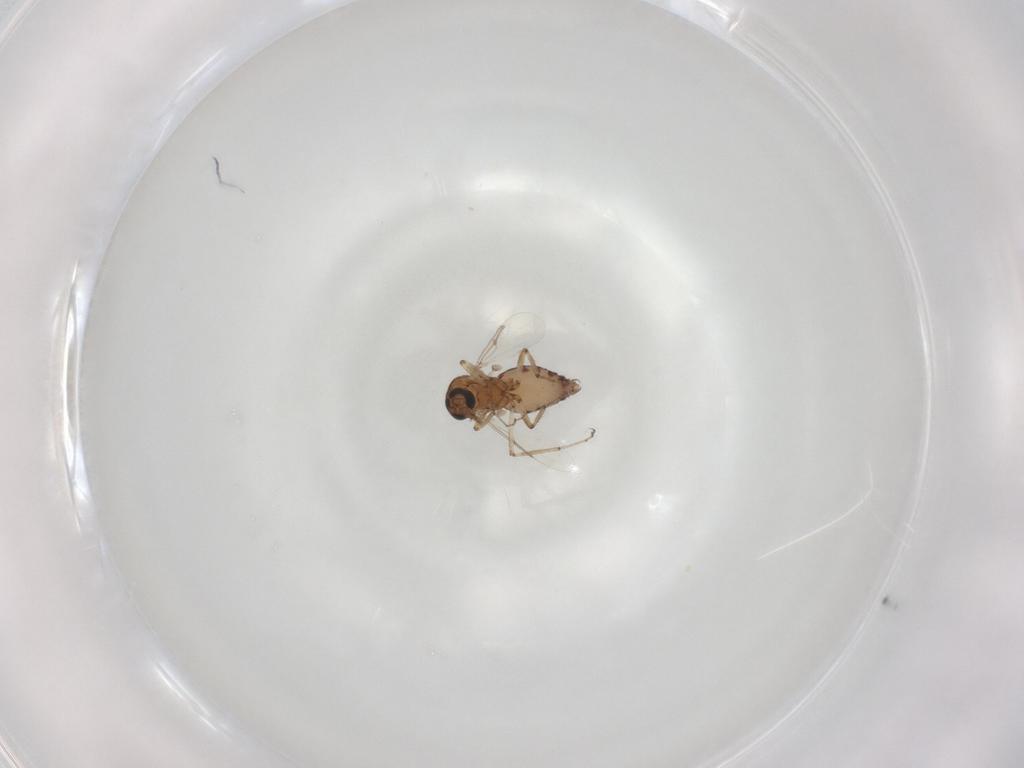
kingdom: Animalia
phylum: Arthropoda
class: Insecta
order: Diptera
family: Ceratopogonidae
